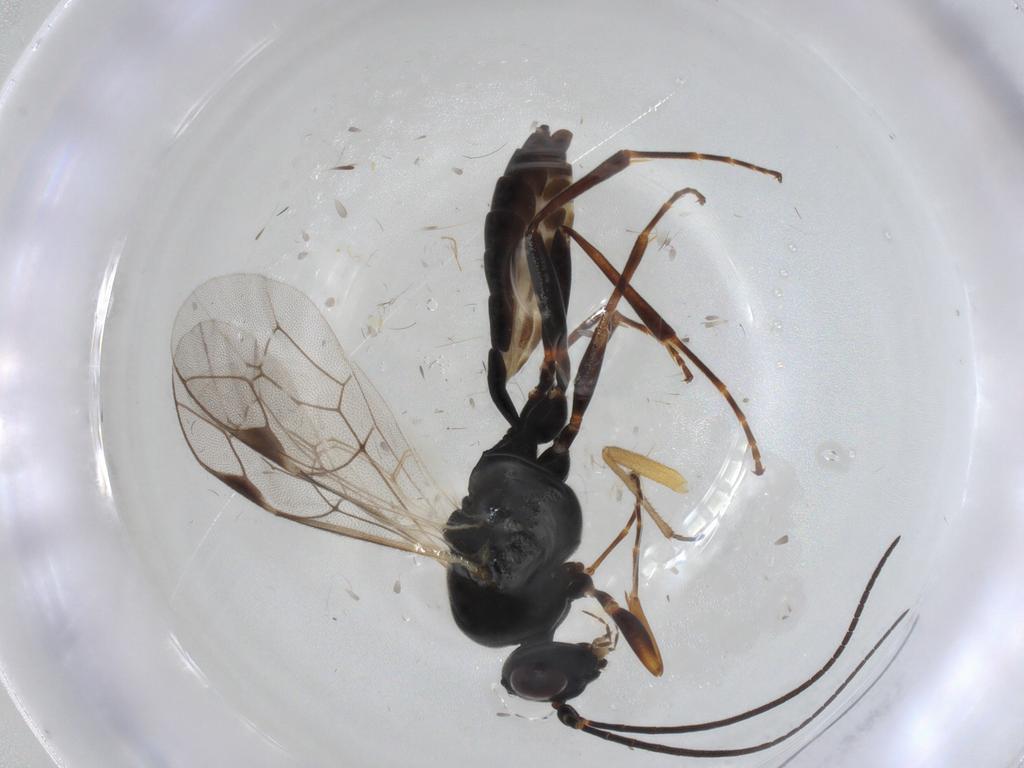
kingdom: Animalia
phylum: Arthropoda
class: Insecta
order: Hymenoptera
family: Ichneumonidae
